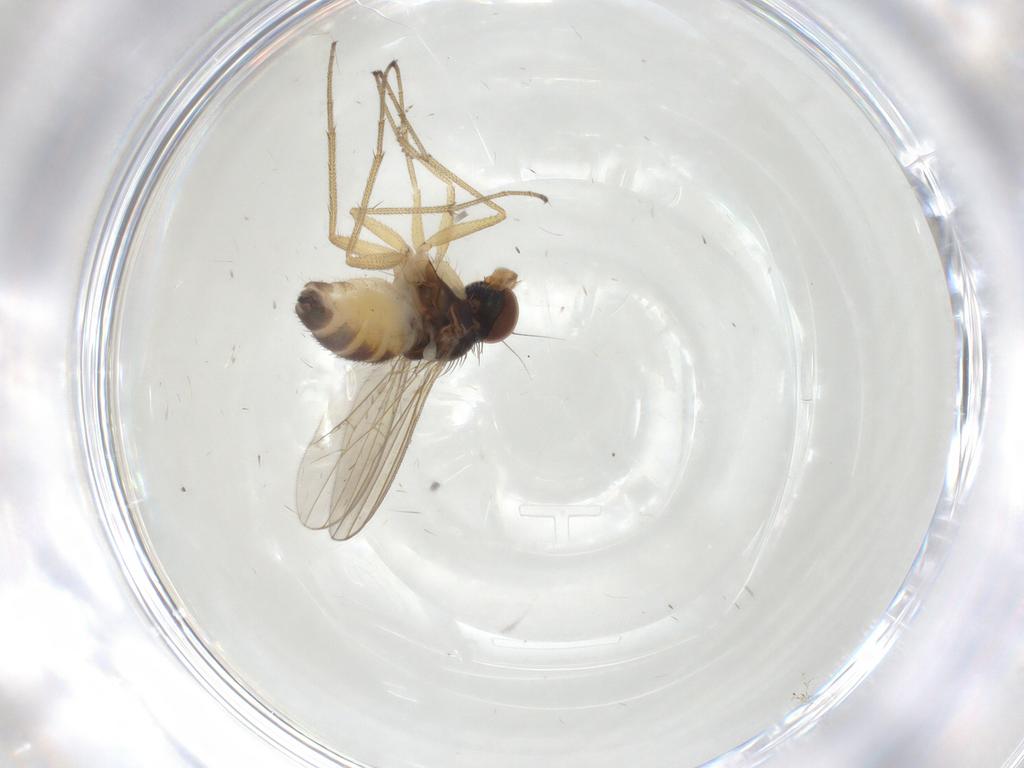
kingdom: Animalia
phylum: Arthropoda
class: Insecta
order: Diptera
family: Dolichopodidae
